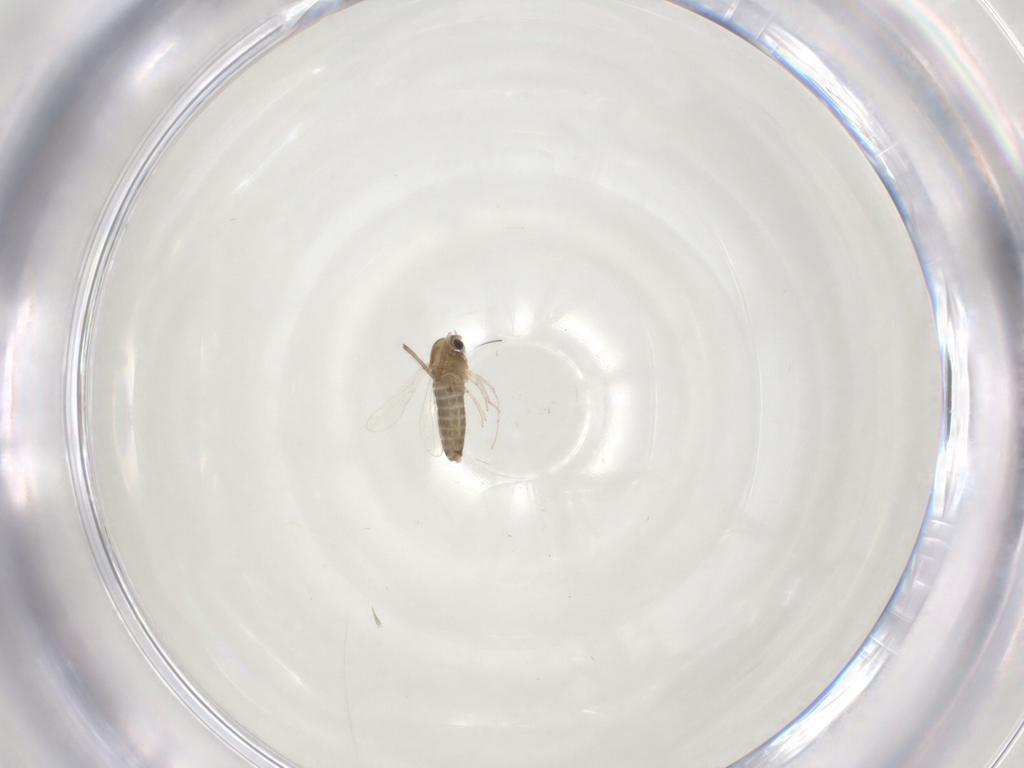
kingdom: Animalia
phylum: Arthropoda
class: Insecta
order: Diptera
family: Chironomidae
